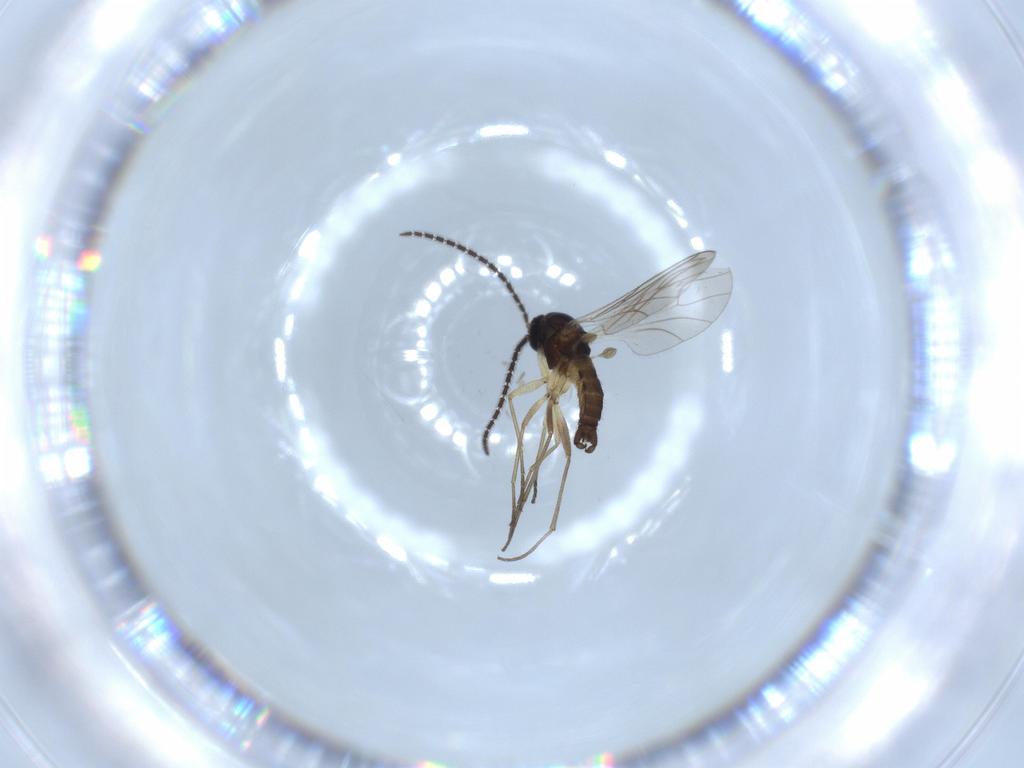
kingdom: Animalia
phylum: Arthropoda
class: Insecta
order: Diptera
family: Sciaridae
